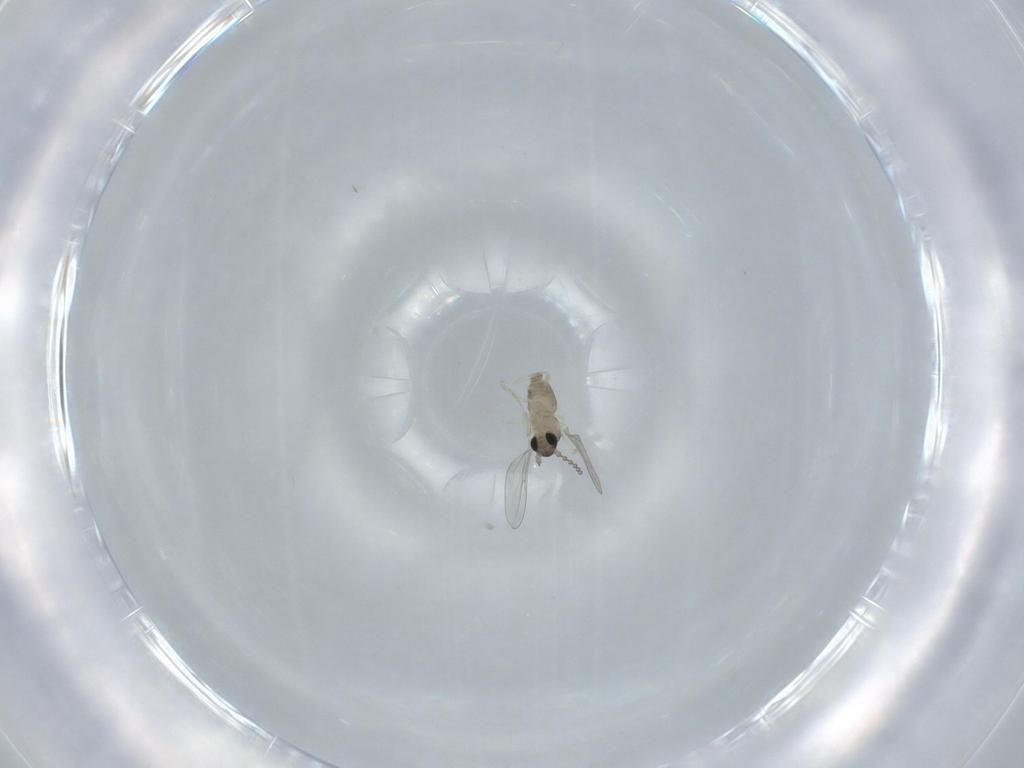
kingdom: Animalia
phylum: Arthropoda
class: Insecta
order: Diptera
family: Cecidomyiidae
